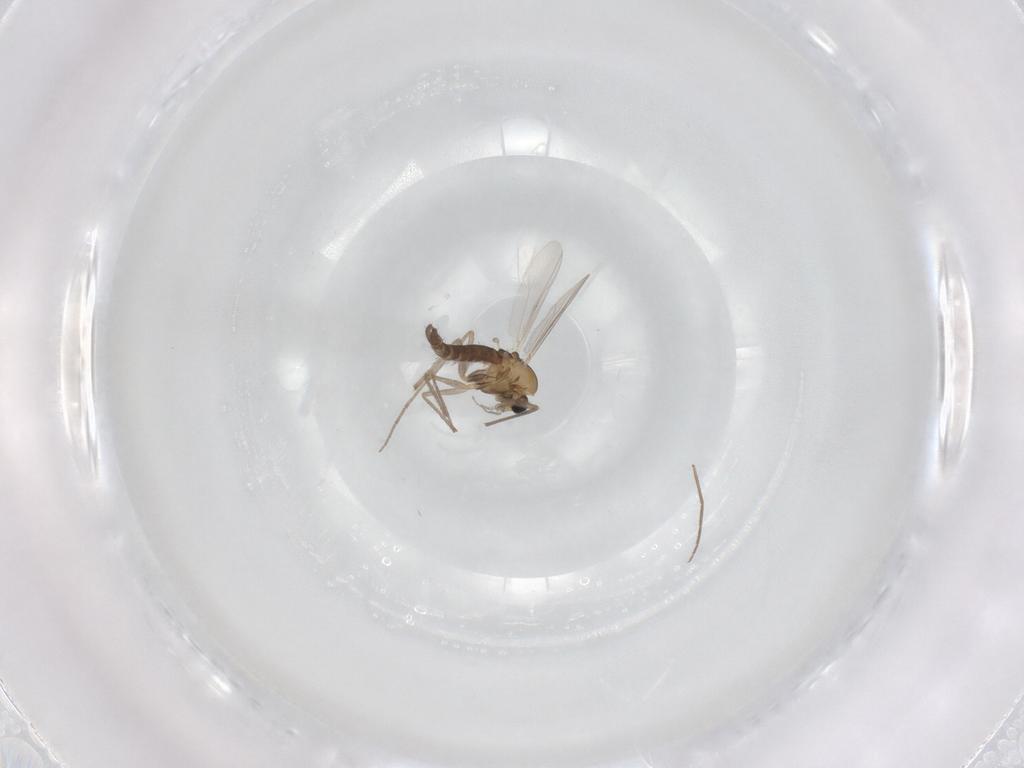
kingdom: Animalia
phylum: Arthropoda
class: Insecta
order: Diptera
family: Chironomidae
